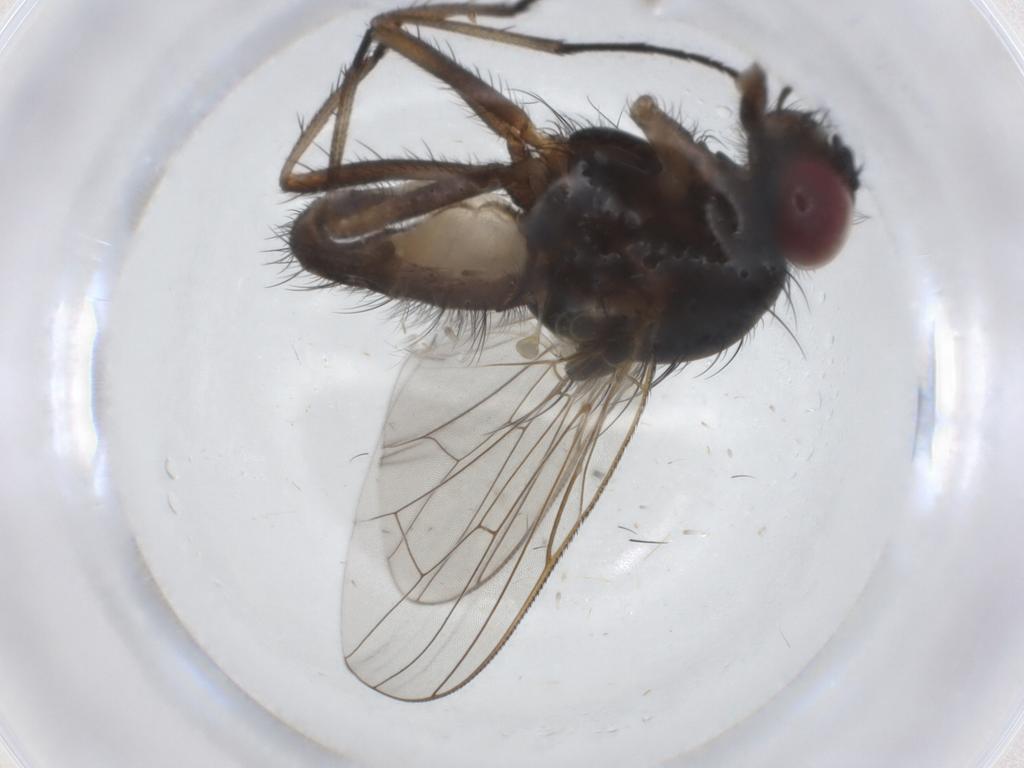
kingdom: Animalia
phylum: Arthropoda
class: Insecta
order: Diptera
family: Anthomyiidae
